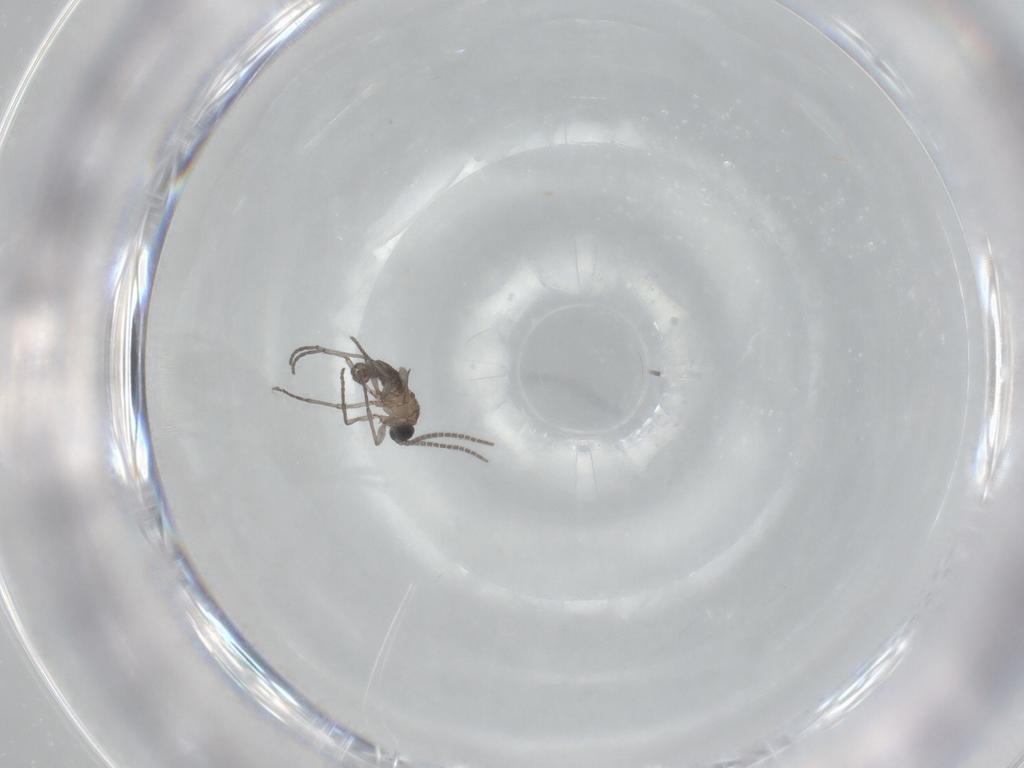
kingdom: Animalia
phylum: Arthropoda
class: Insecta
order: Diptera
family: Sciaridae
